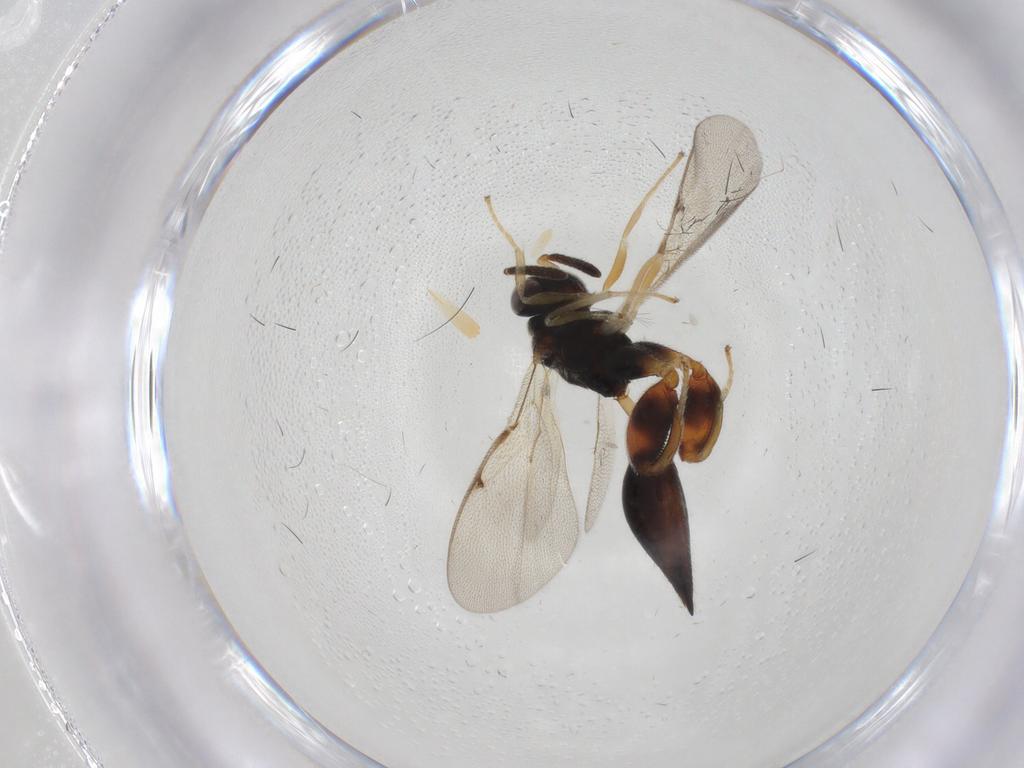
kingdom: Animalia
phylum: Arthropoda
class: Insecta
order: Hymenoptera
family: Chalcididae
